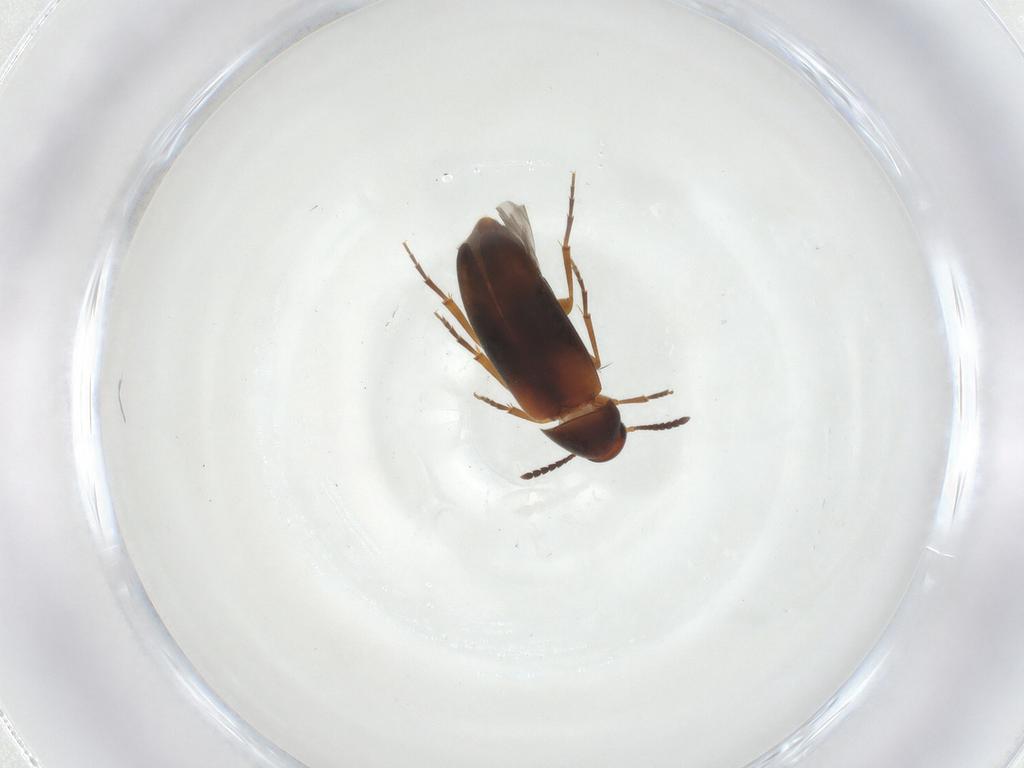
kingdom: Animalia
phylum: Arthropoda
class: Insecta
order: Coleoptera
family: Scraptiidae
